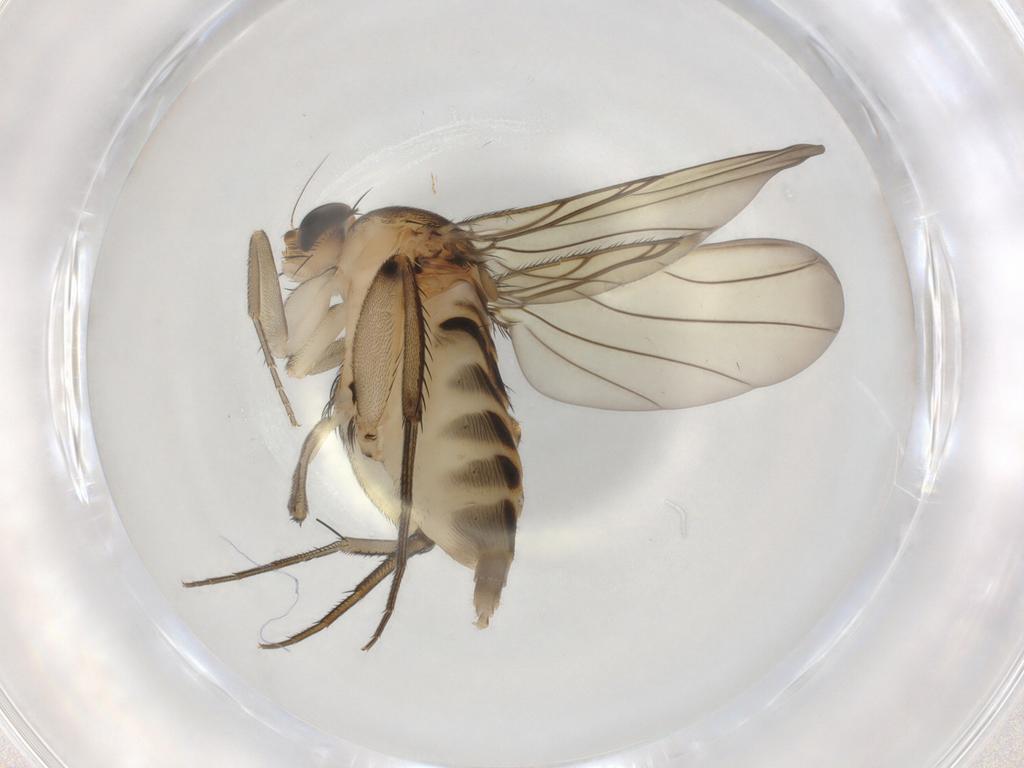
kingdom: Animalia
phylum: Arthropoda
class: Insecta
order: Diptera
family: Phoridae
